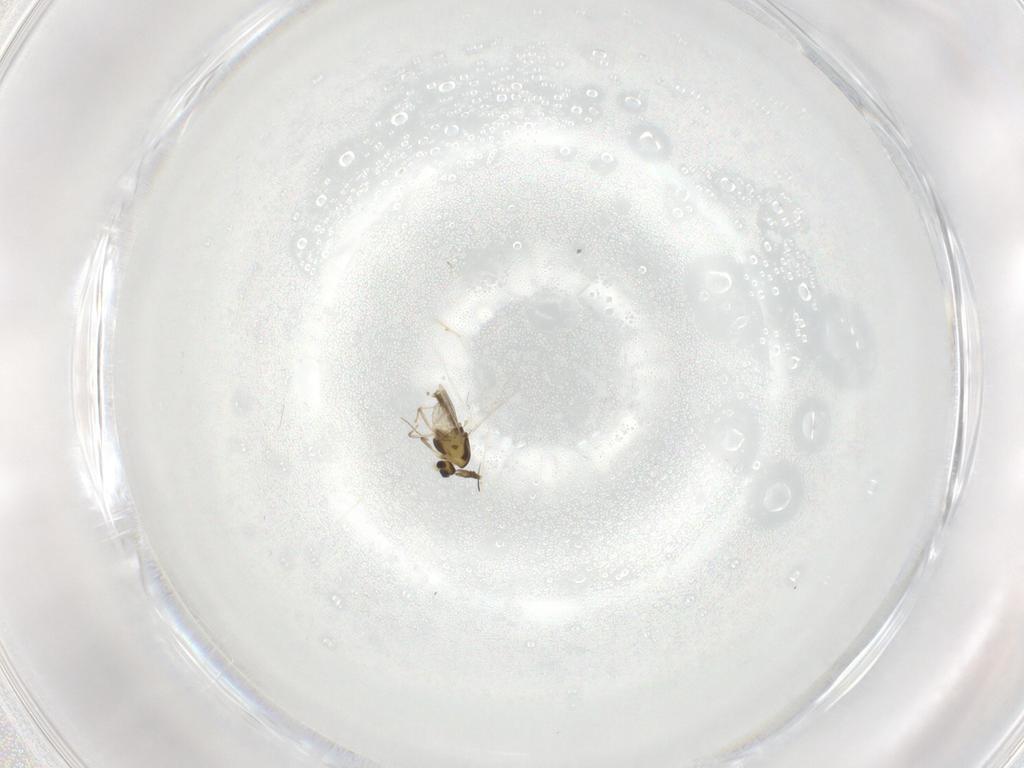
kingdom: Animalia
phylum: Arthropoda
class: Insecta
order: Diptera
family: Chironomidae
